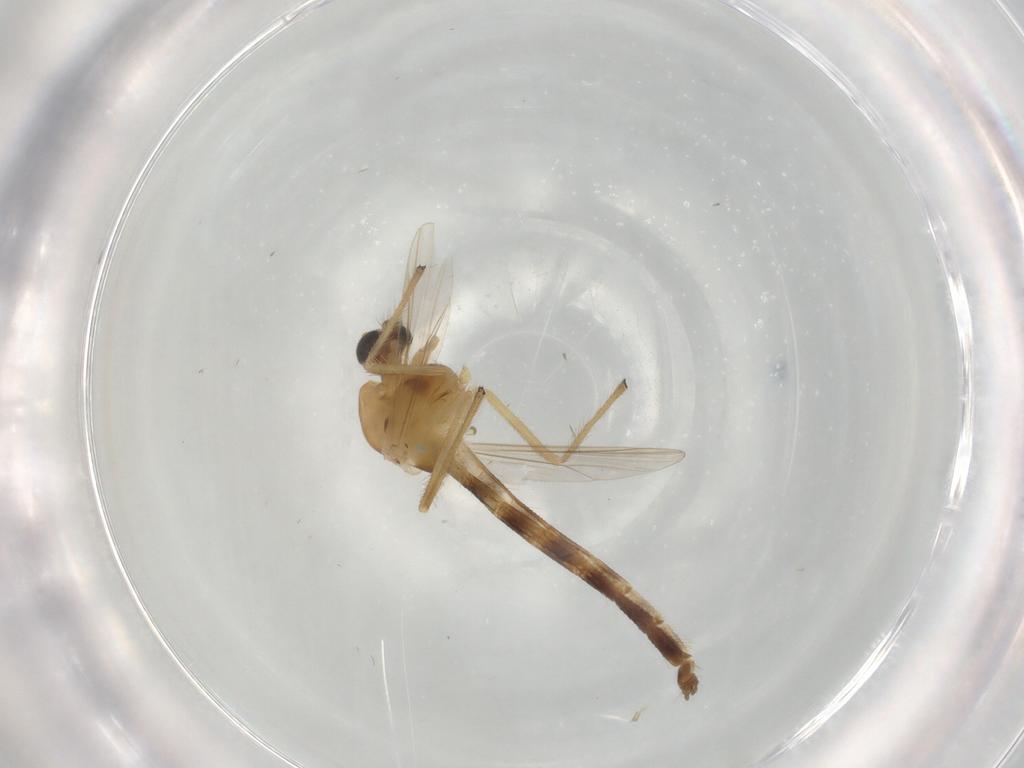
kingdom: Animalia
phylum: Arthropoda
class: Insecta
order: Diptera
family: Chironomidae
